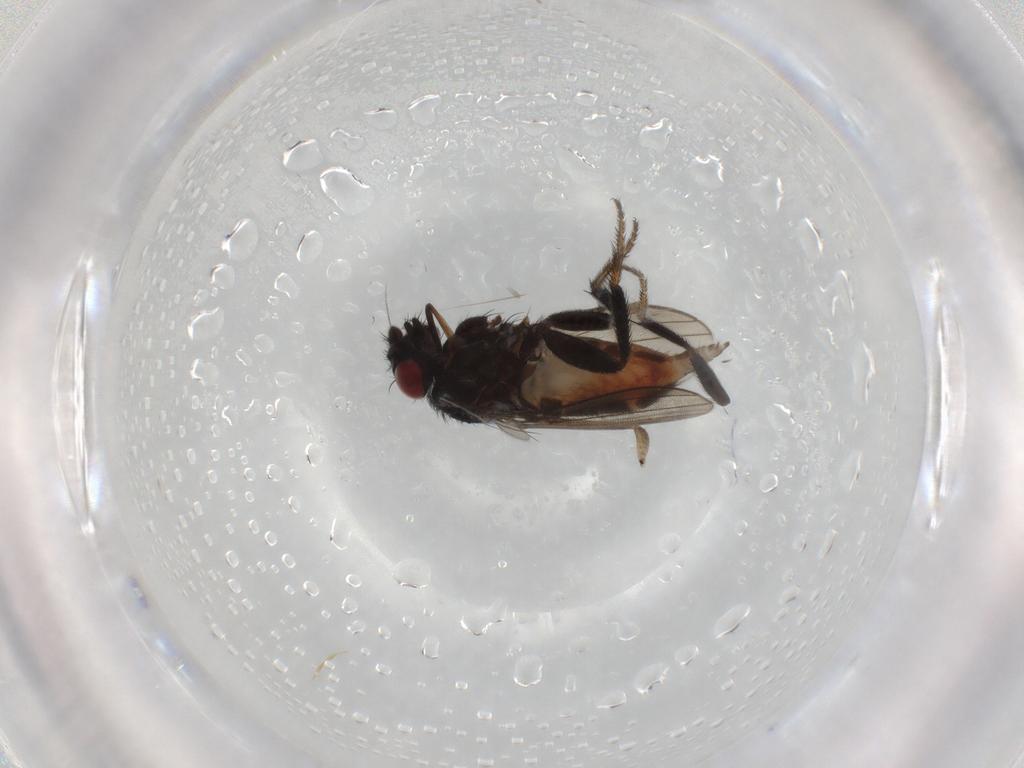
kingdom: Animalia
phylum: Arthropoda
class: Insecta
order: Diptera
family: Milichiidae
